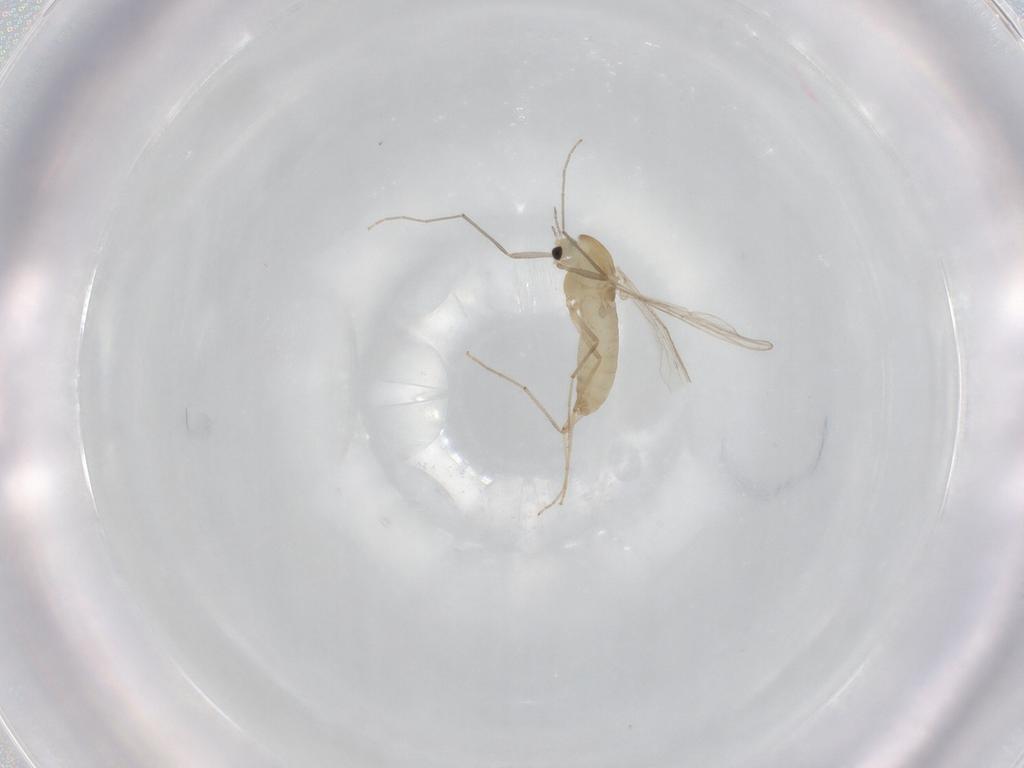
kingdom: Animalia
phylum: Arthropoda
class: Insecta
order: Diptera
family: Chironomidae
